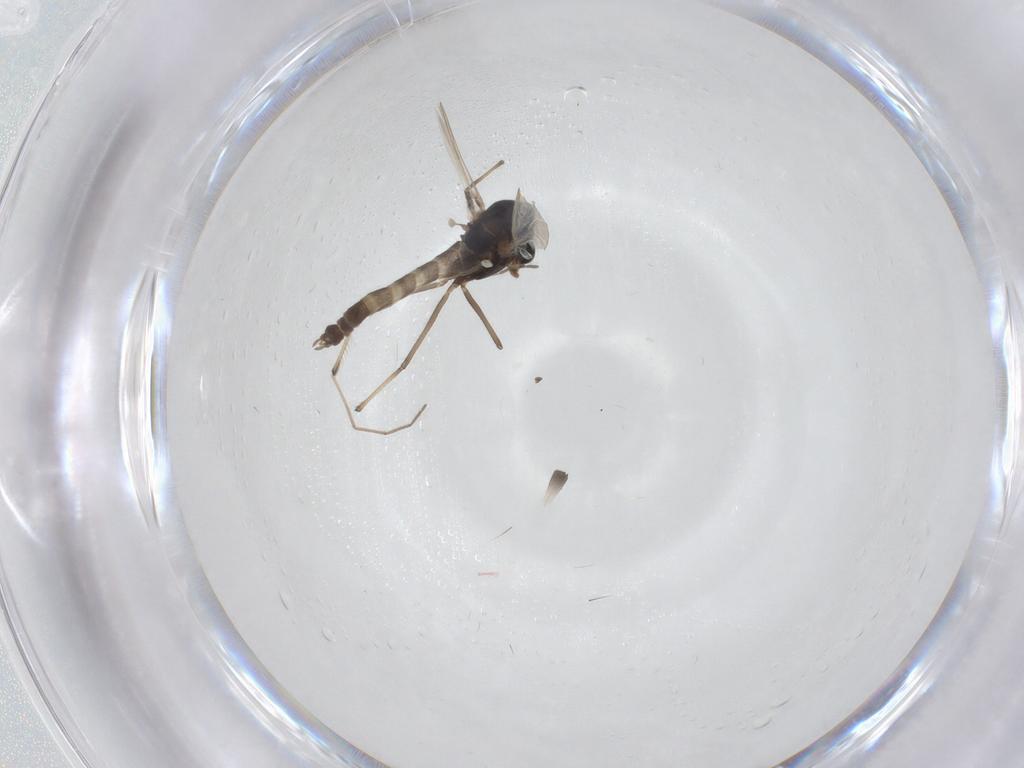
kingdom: Animalia
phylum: Arthropoda
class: Insecta
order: Diptera
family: Chironomidae
